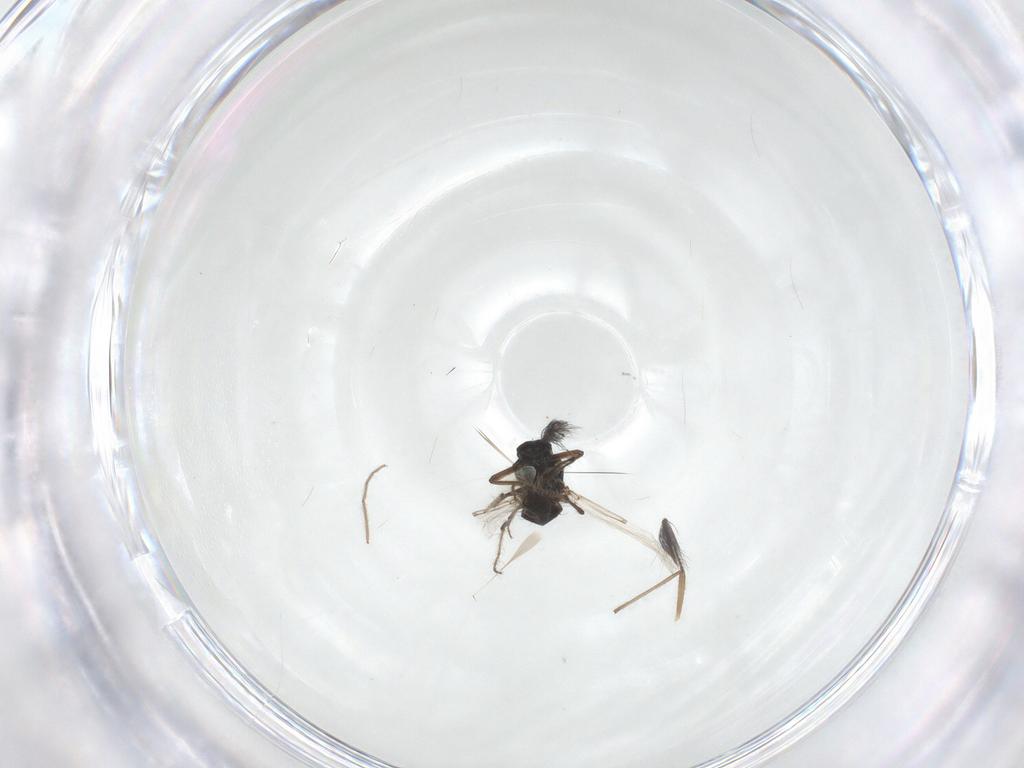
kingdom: Animalia
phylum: Arthropoda
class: Insecta
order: Diptera
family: Ceratopogonidae
